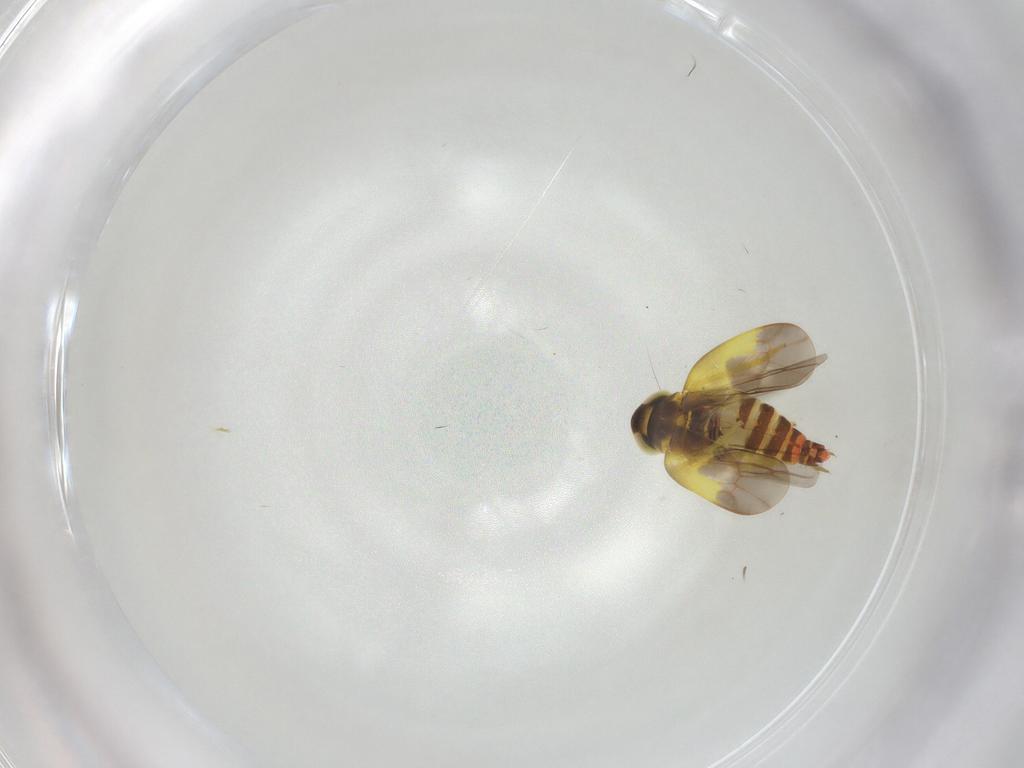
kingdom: Animalia
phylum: Arthropoda
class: Insecta
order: Hemiptera
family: Cicadellidae
